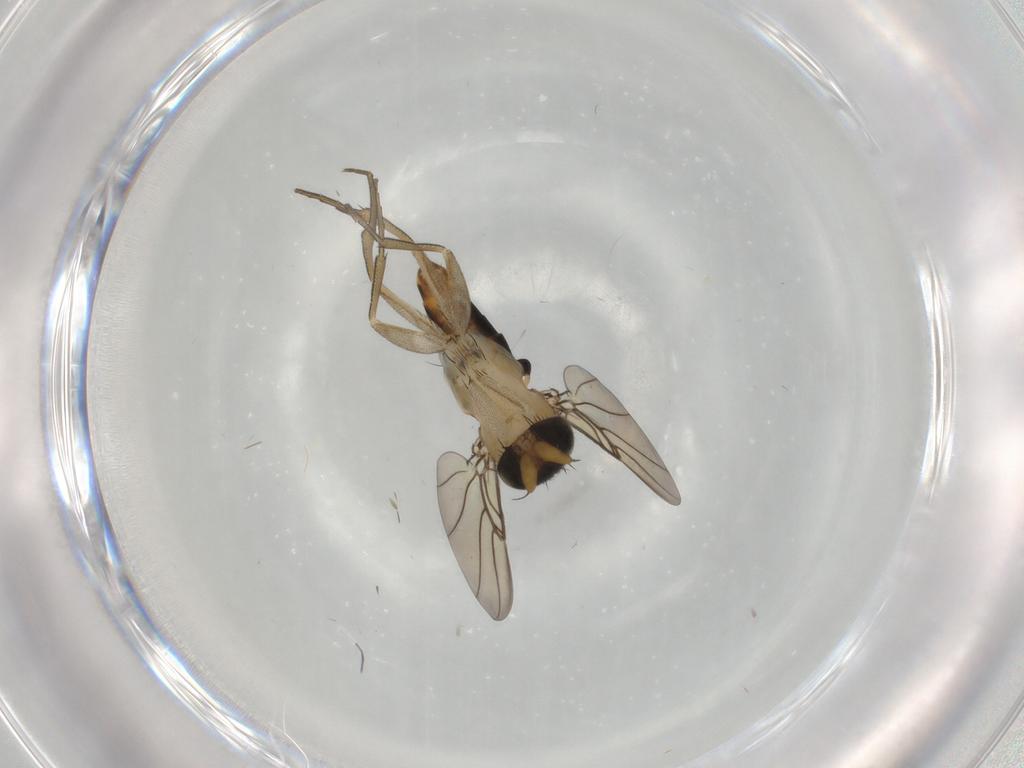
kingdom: Animalia
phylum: Arthropoda
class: Insecta
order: Diptera
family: Phoridae
